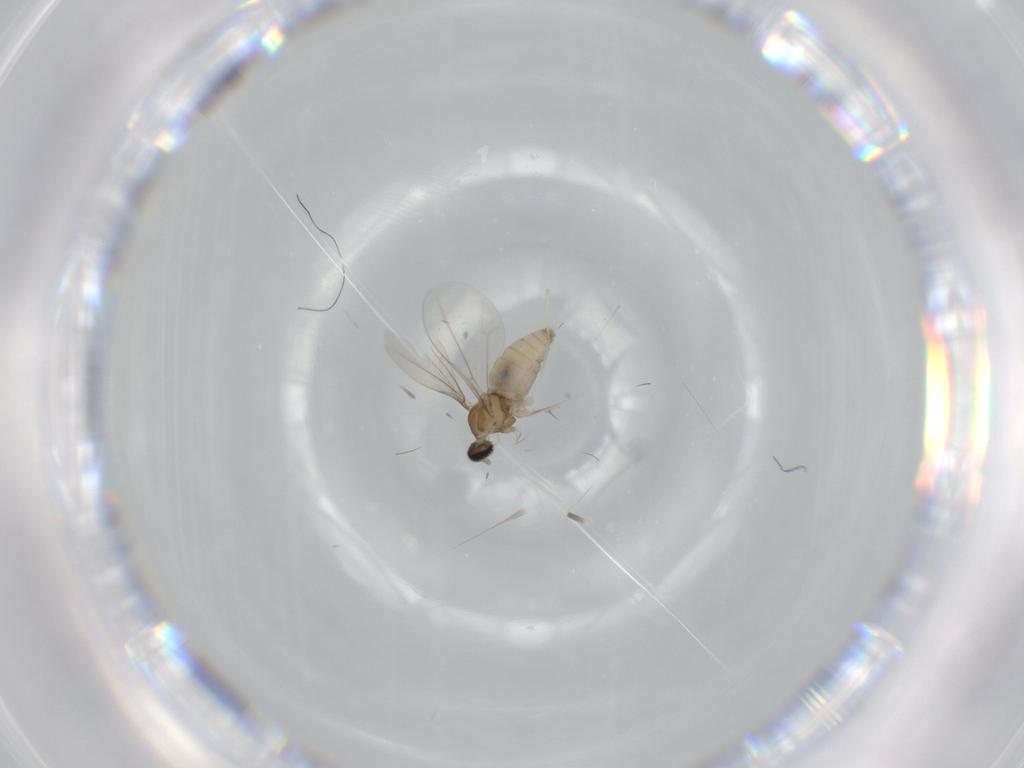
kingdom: Animalia
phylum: Arthropoda
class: Insecta
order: Diptera
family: Cecidomyiidae
